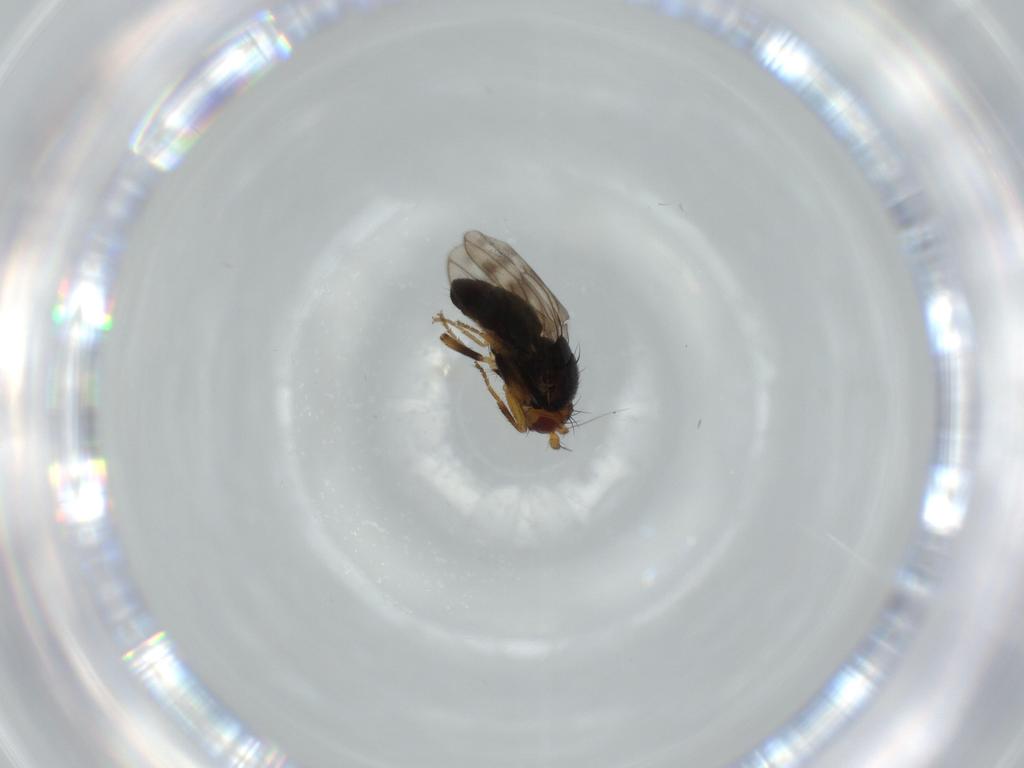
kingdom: Animalia
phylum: Arthropoda
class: Insecta
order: Diptera
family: Sphaeroceridae
